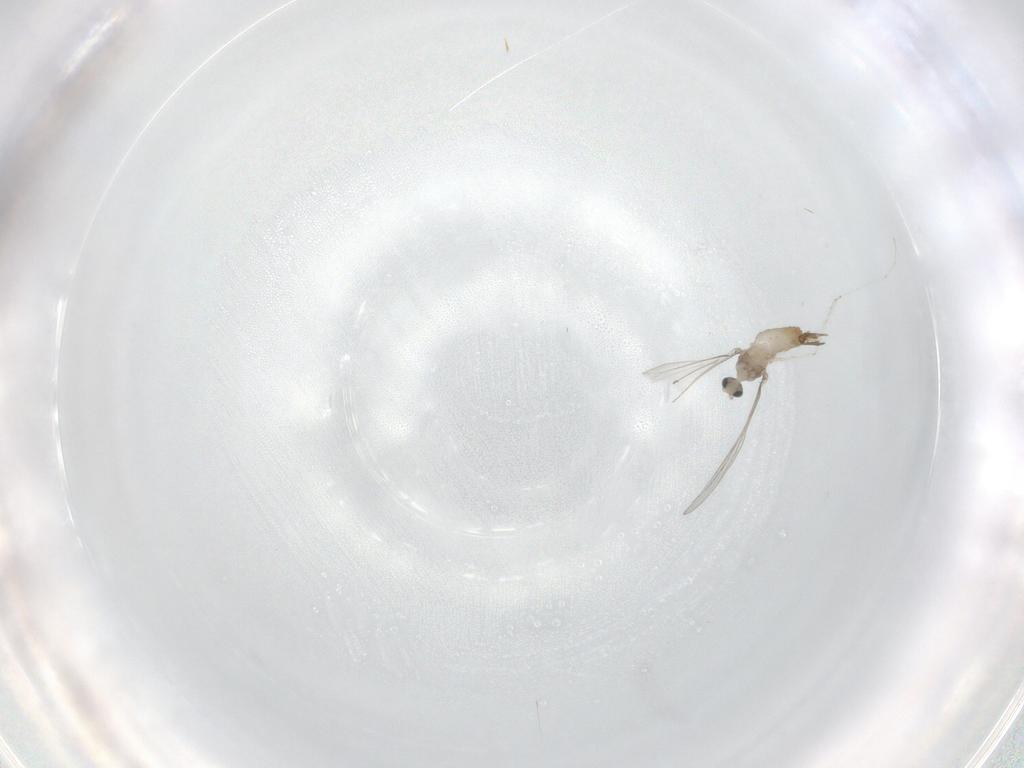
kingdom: Animalia
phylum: Arthropoda
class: Insecta
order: Diptera
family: Cecidomyiidae
